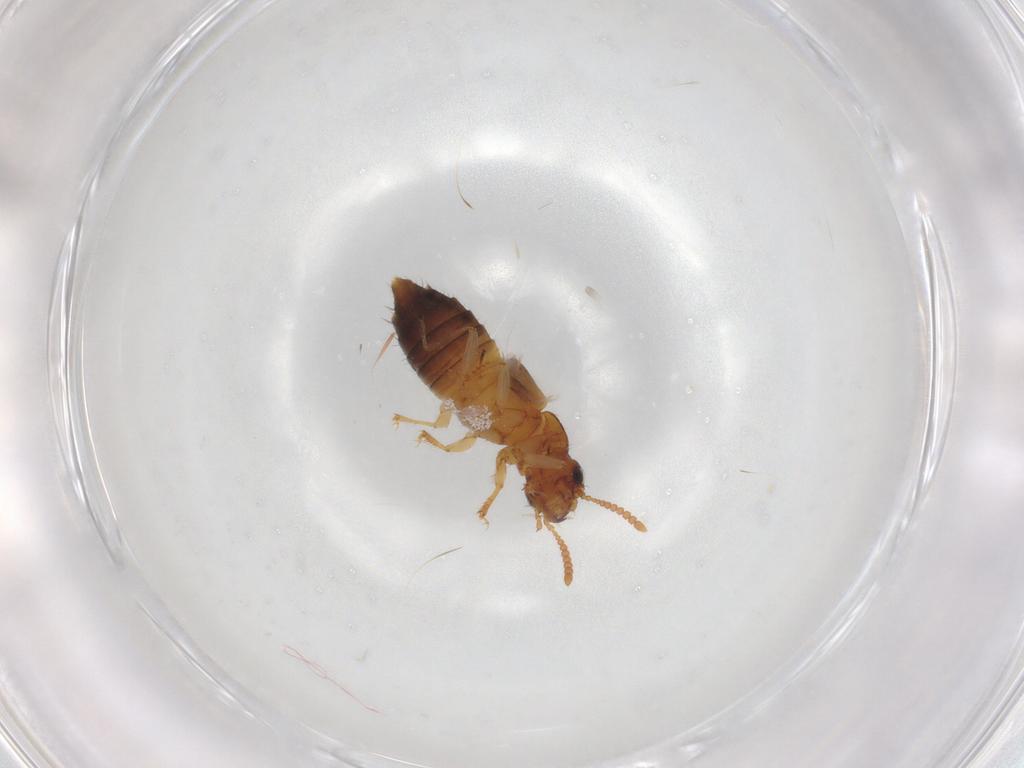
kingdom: Animalia
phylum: Arthropoda
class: Insecta
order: Coleoptera
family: Staphylinidae
